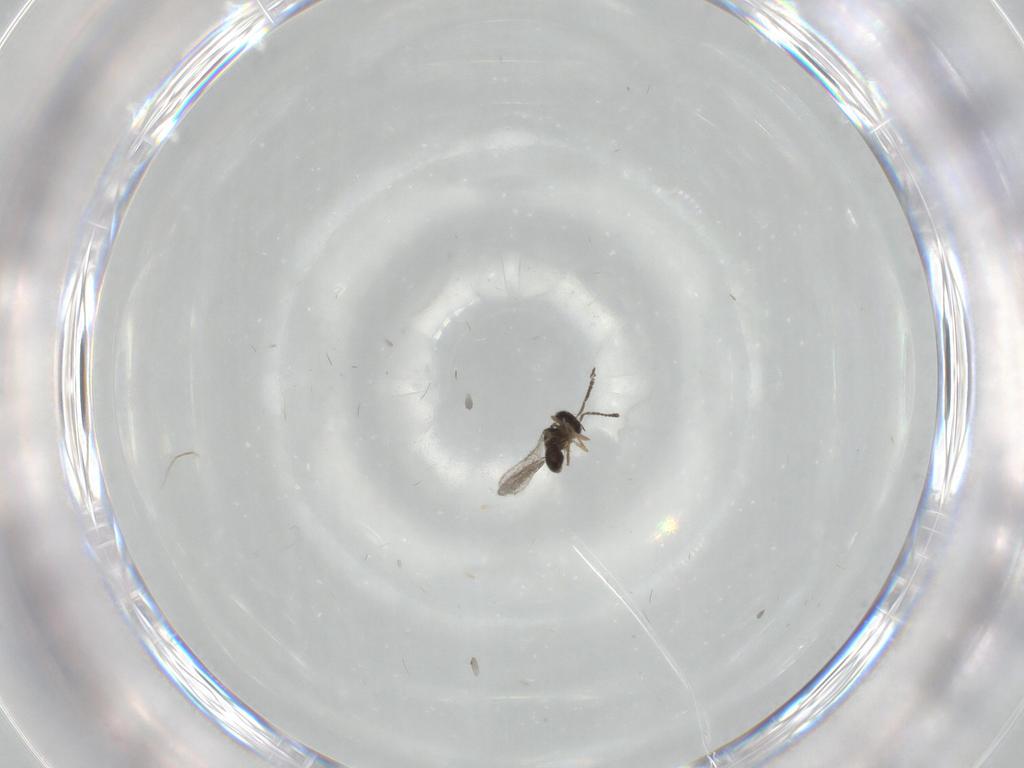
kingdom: Animalia
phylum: Arthropoda
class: Insecta
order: Hymenoptera
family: Scelionidae
